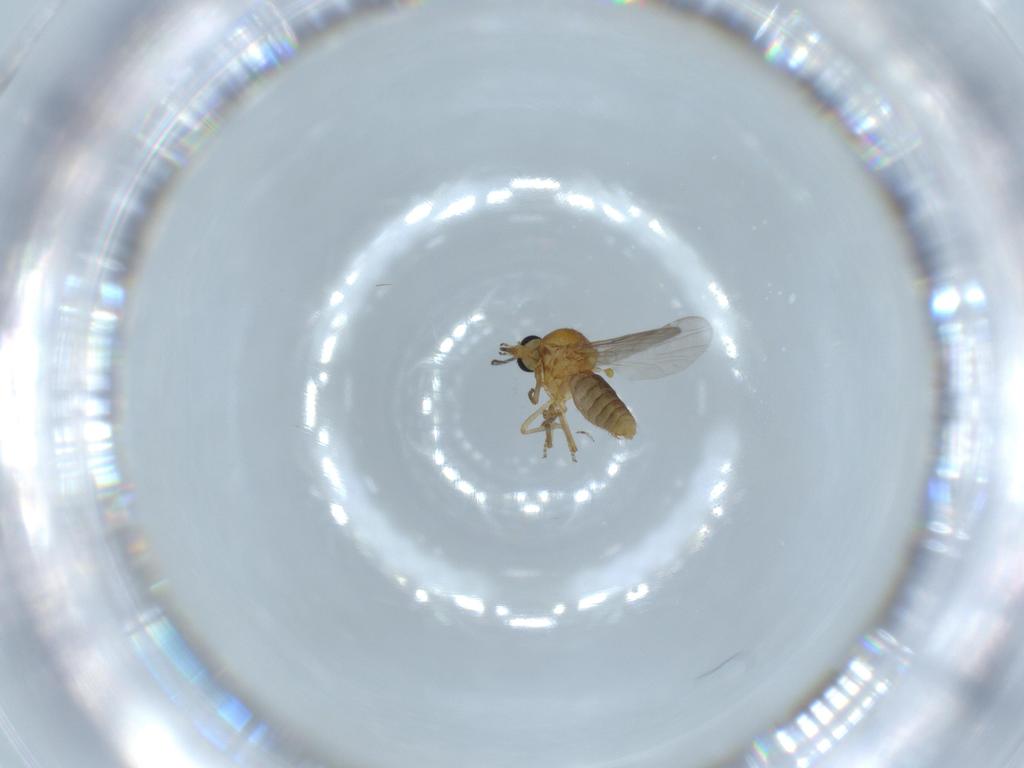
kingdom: Animalia
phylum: Arthropoda
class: Insecta
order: Diptera
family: Ceratopogonidae
